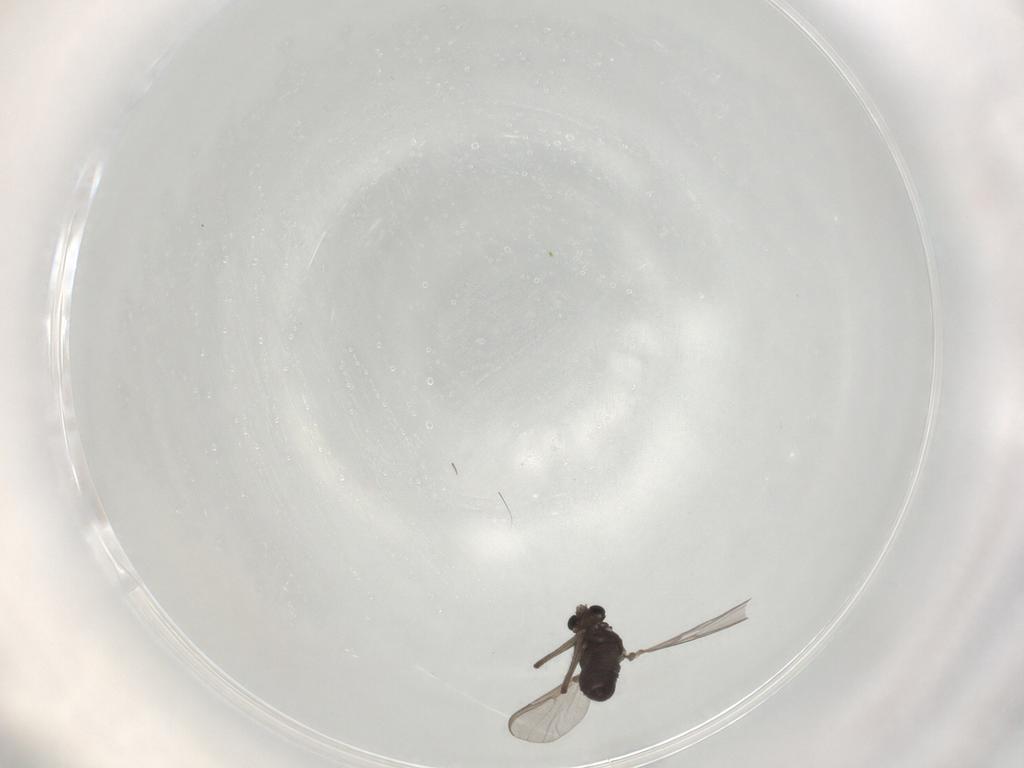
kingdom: Animalia
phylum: Arthropoda
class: Insecta
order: Diptera
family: Sciaridae
